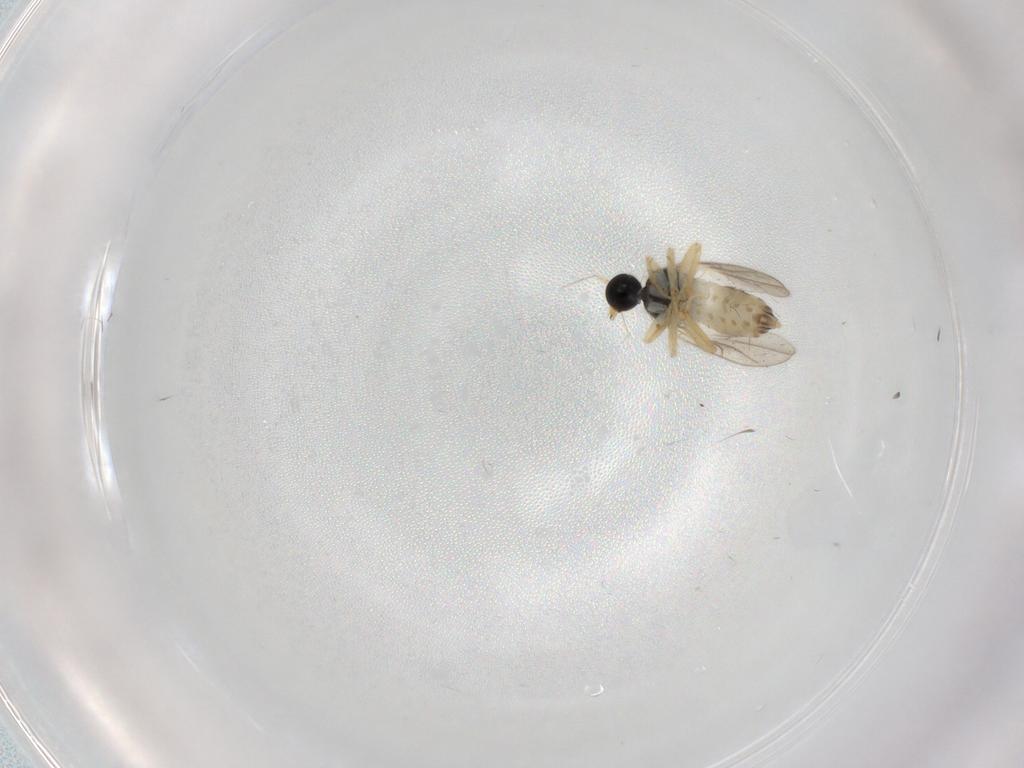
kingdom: Animalia
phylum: Arthropoda
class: Insecta
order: Diptera
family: Hybotidae
